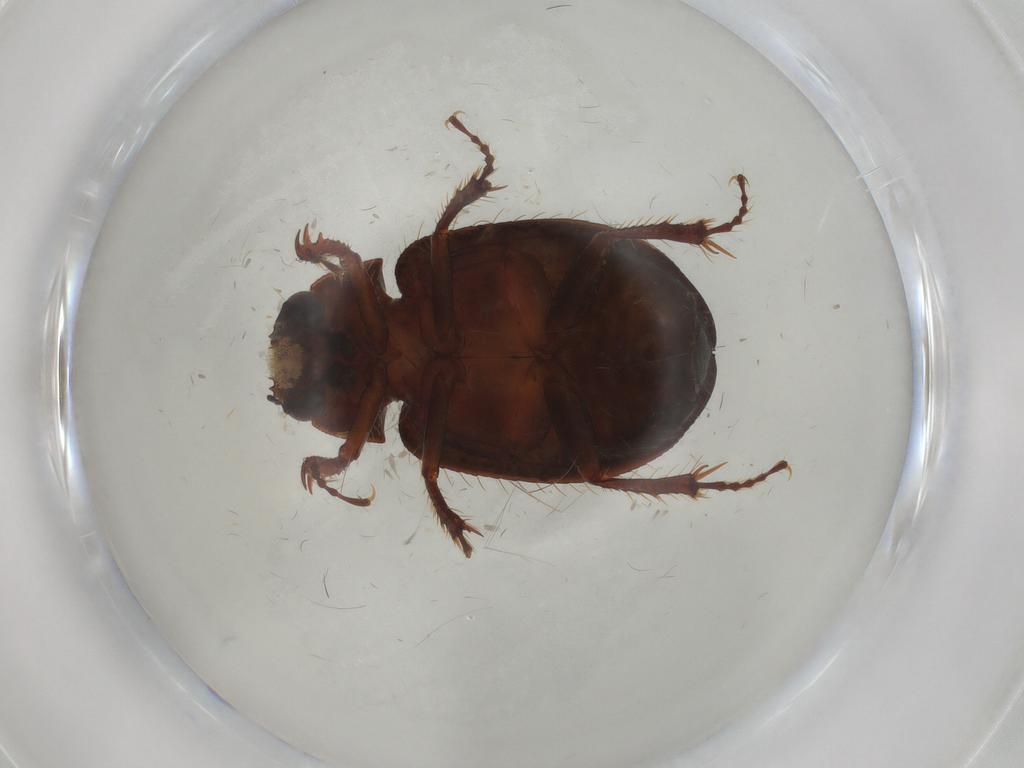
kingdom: Animalia
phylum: Arthropoda
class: Insecta
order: Coleoptera
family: Hybosoridae
